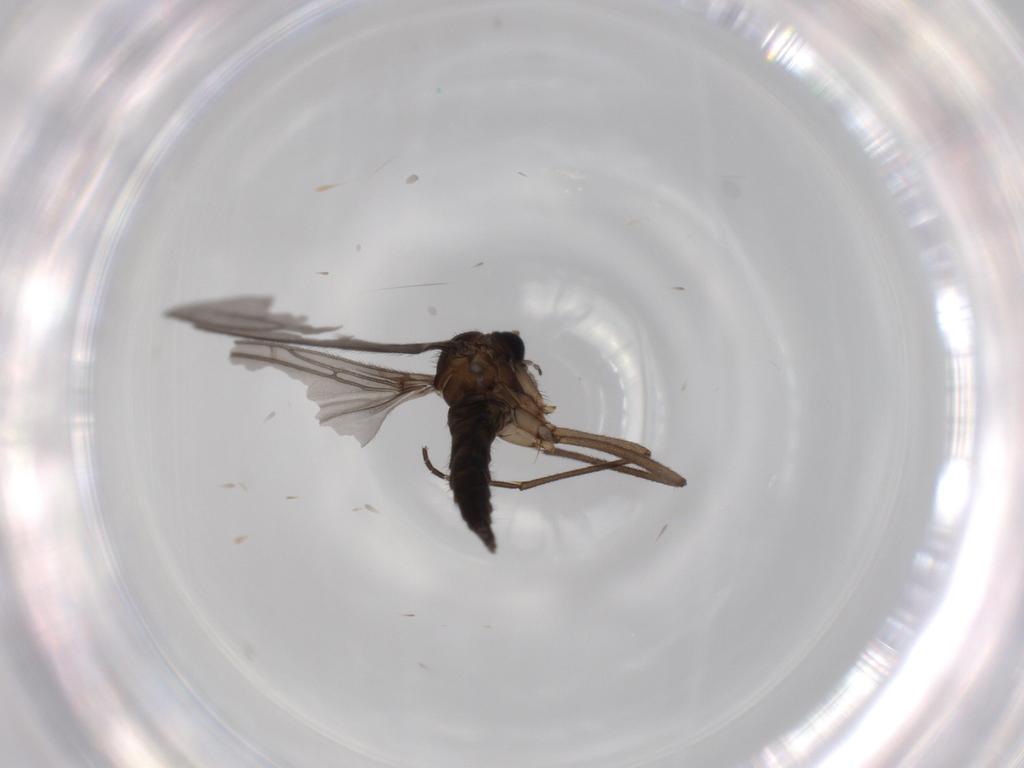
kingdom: Animalia
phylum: Arthropoda
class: Insecta
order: Diptera
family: Sciaridae
